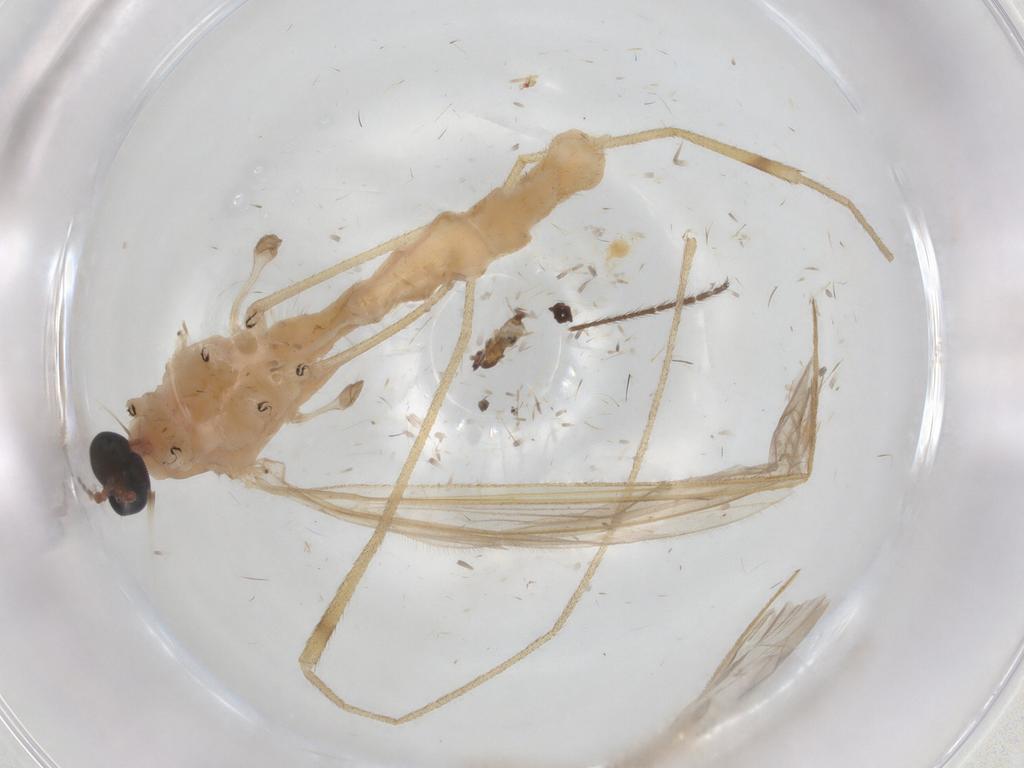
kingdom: Animalia
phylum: Arthropoda
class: Insecta
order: Diptera
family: Ceratopogonidae
